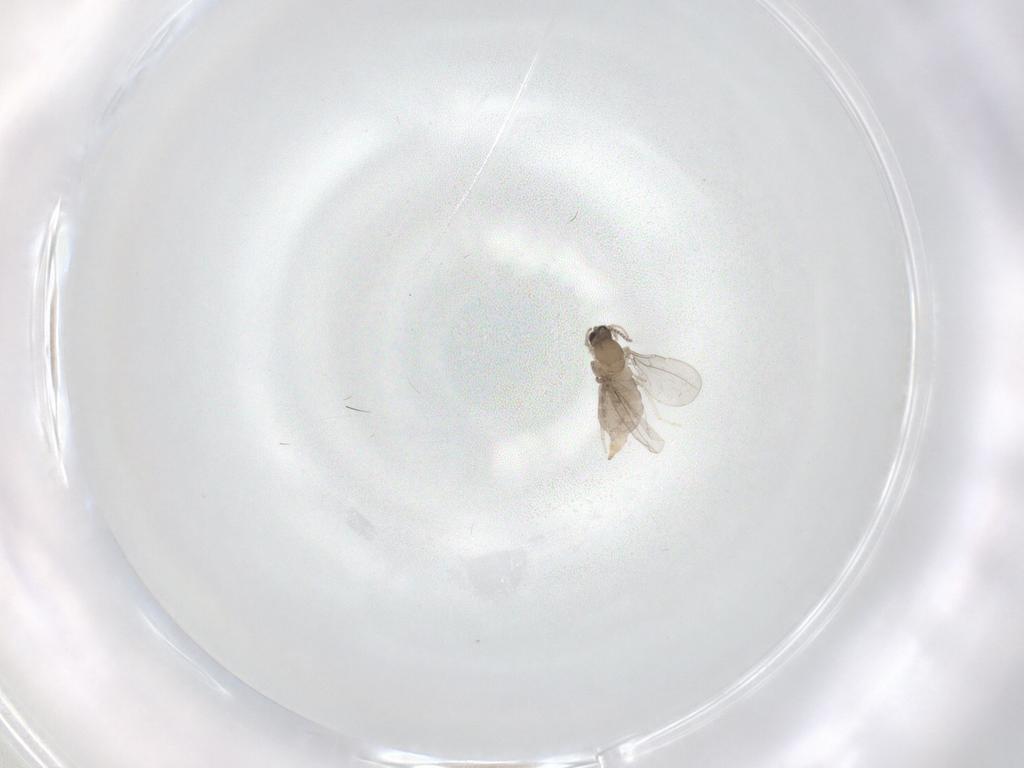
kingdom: Animalia
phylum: Arthropoda
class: Insecta
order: Diptera
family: Cecidomyiidae
